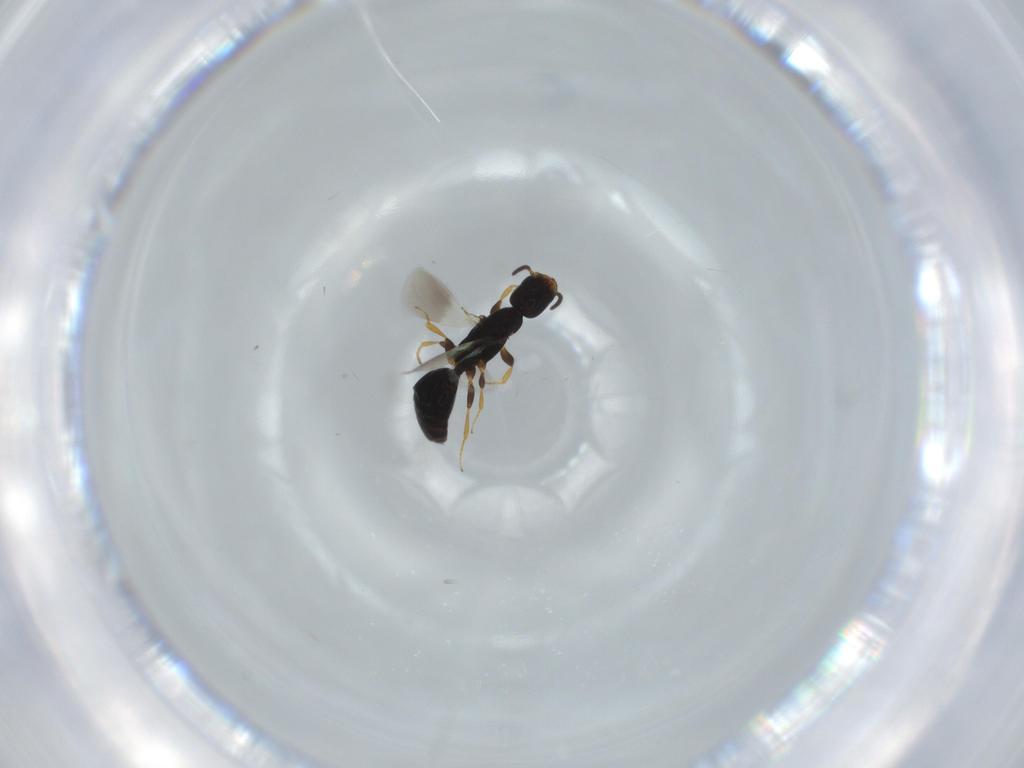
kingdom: Animalia
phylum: Arthropoda
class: Insecta
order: Hymenoptera
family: Bethylidae
